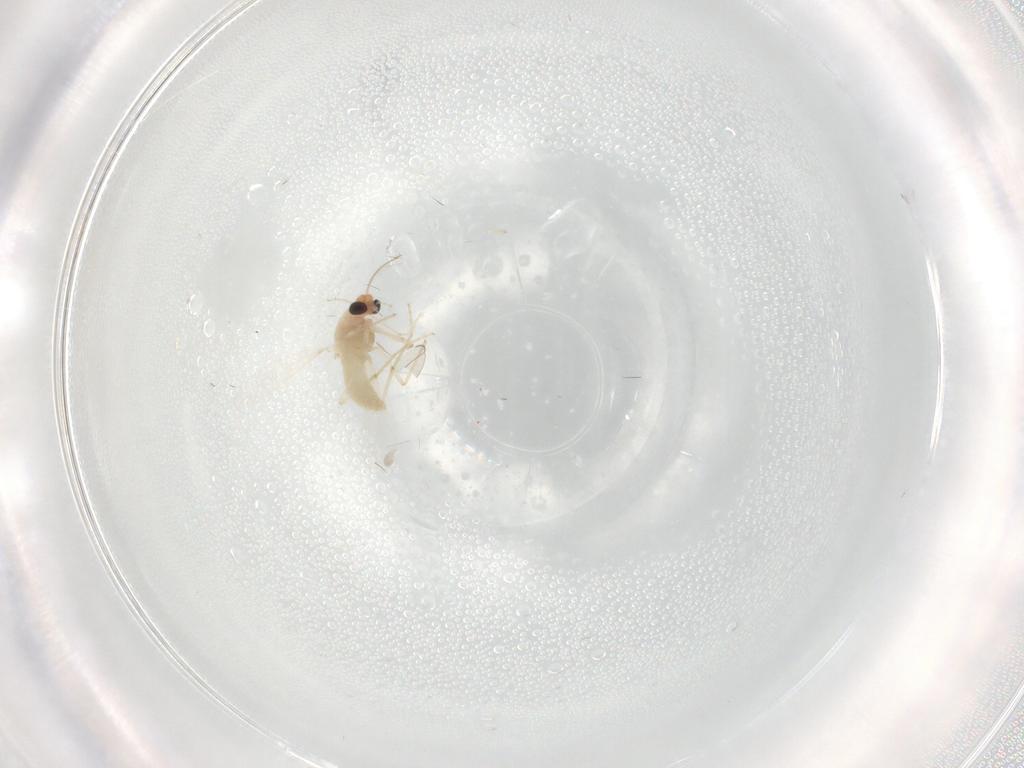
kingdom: Animalia
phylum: Arthropoda
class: Insecta
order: Diptera
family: Chironomidae
